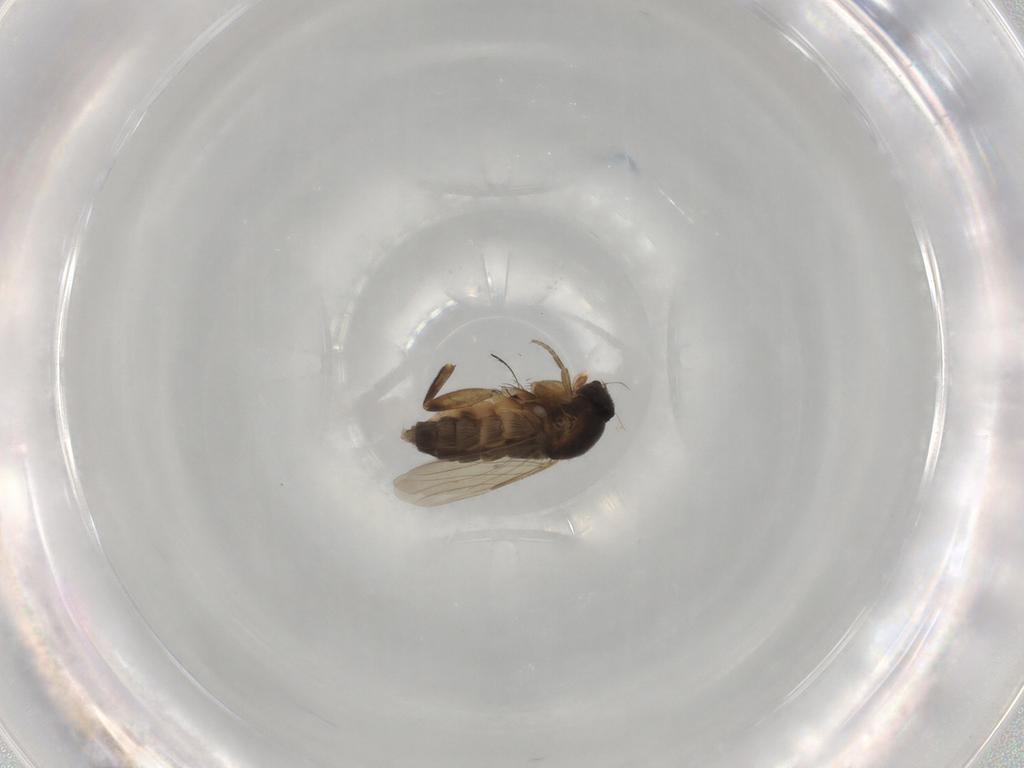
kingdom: Animalia
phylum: Arthropoda
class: Insecta
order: Diptera
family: Phoridae
